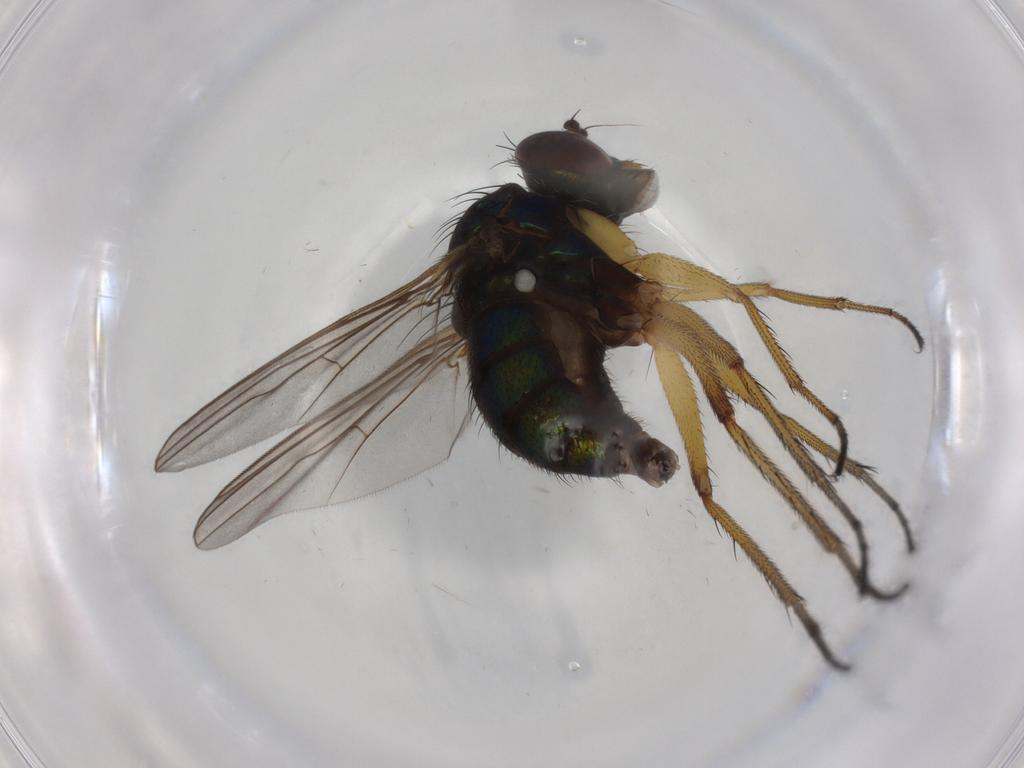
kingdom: Animalia
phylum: Arthropoda
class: Insecta
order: Diptera
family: Dolichopodidae
